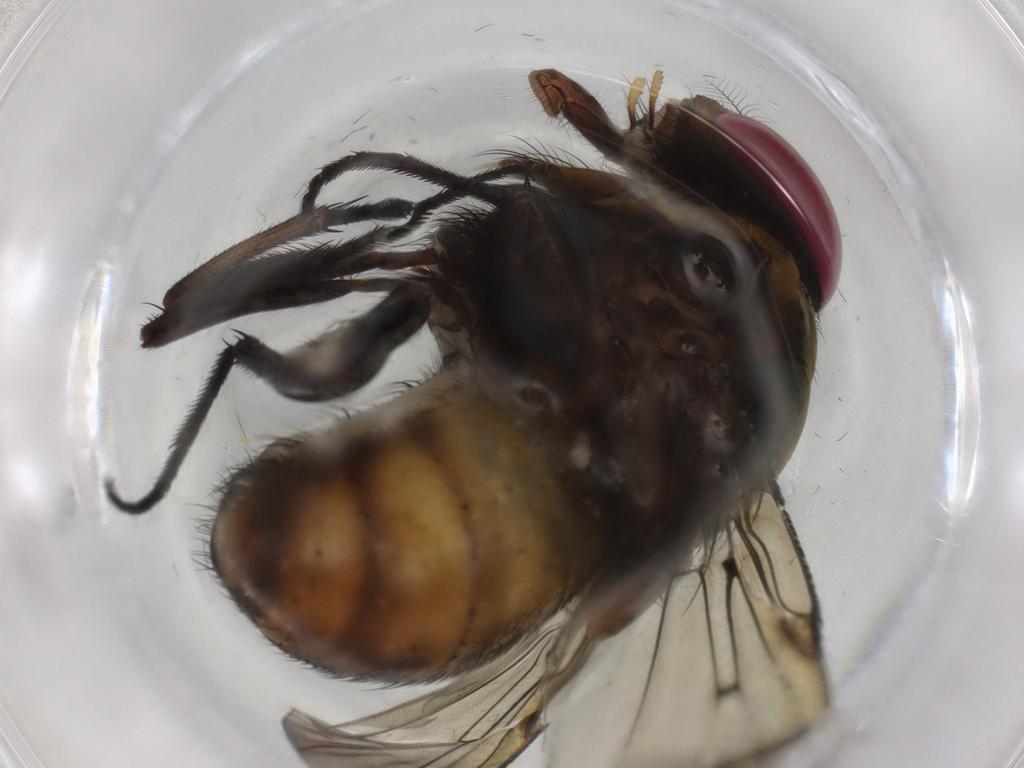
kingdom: Animalia
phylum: Arthropoda
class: Insecta
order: Diptera
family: Muscidae
